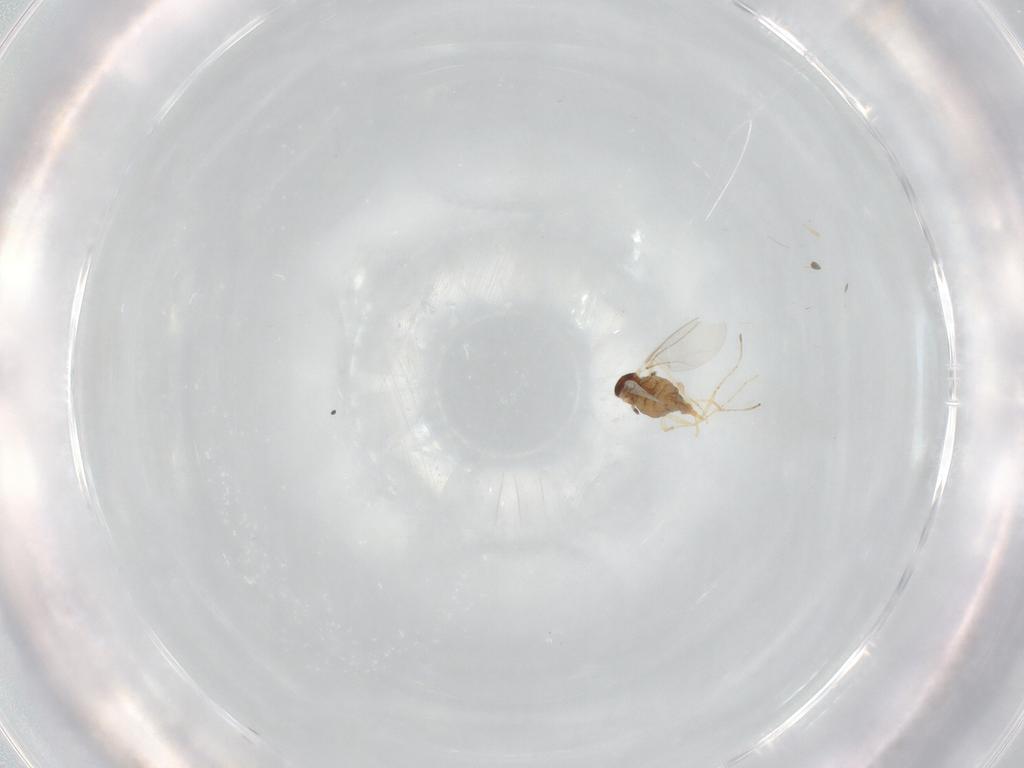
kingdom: Animalia
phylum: Arthropoda
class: Insecta
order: Diptera
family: Cecidomyiidae
